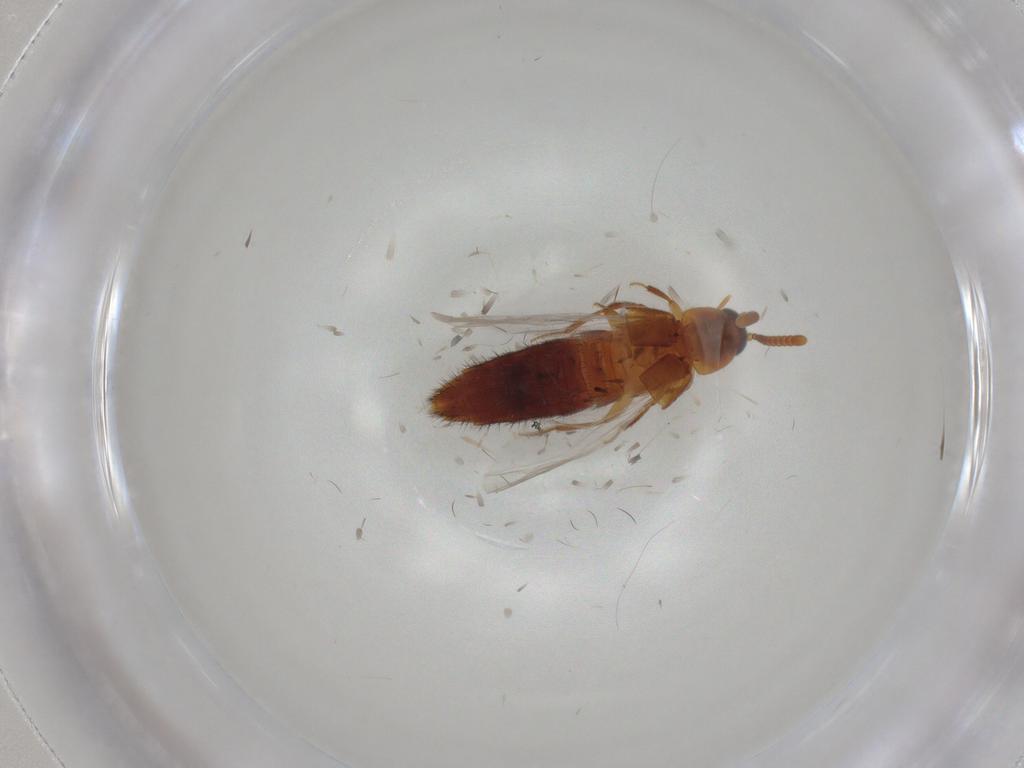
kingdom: Animalia
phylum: Arthropoda
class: Insecta
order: Coleoptera
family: Staphylinidae
